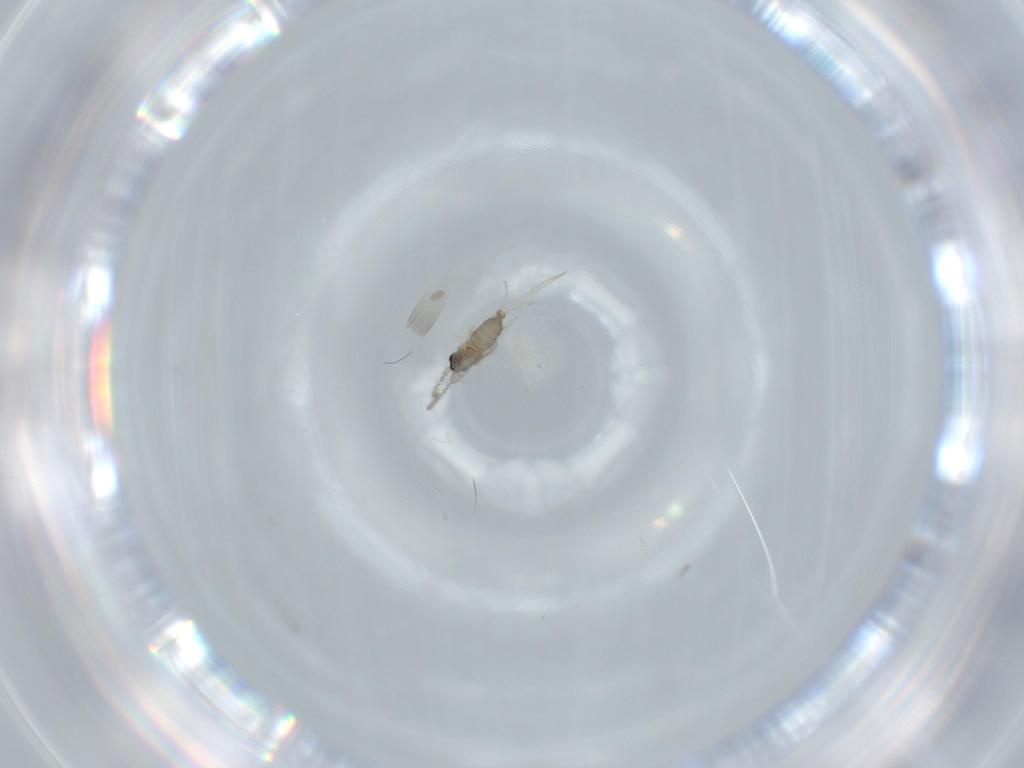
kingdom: Animalia
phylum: Arthropoda
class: Insecta
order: Diptera
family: Cecidomyiidae
